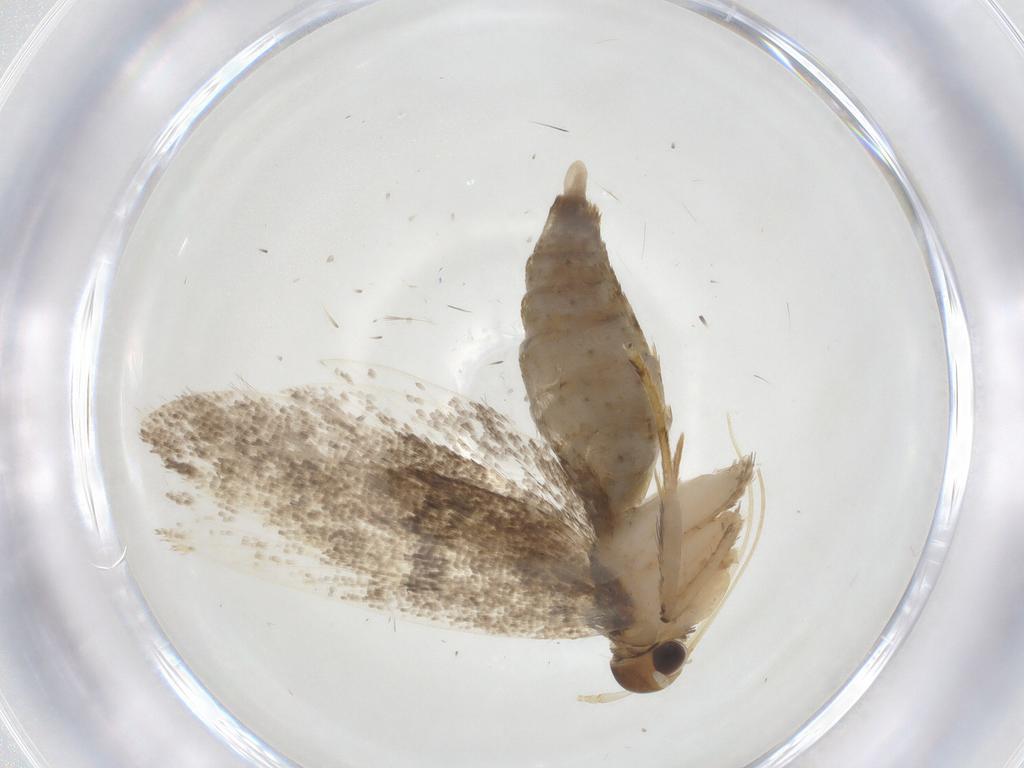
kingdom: Animalia
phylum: Arthropoda
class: Insecta
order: Lepidoptera
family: Lecithoceridae
